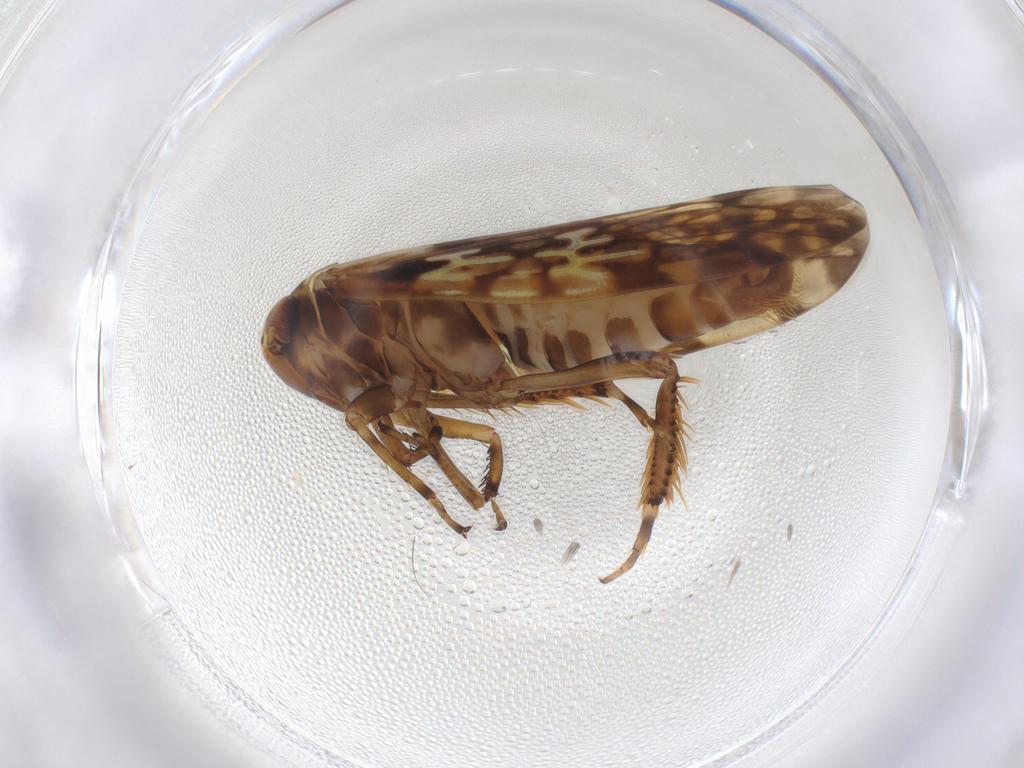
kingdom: Animalia
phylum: Arthropoda
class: Insecta
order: Hemiptera
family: Cicadellidae
